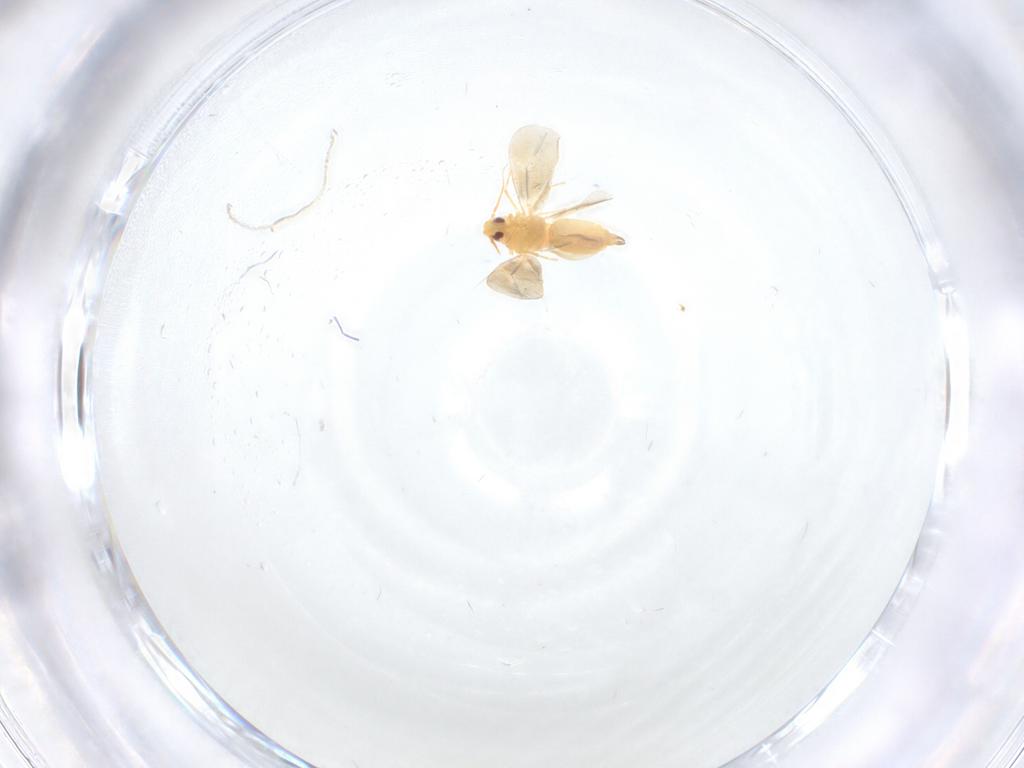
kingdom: Animalia
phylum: Arthropoda
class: Insecta
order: Hemiptera
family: Aleyrodidae
